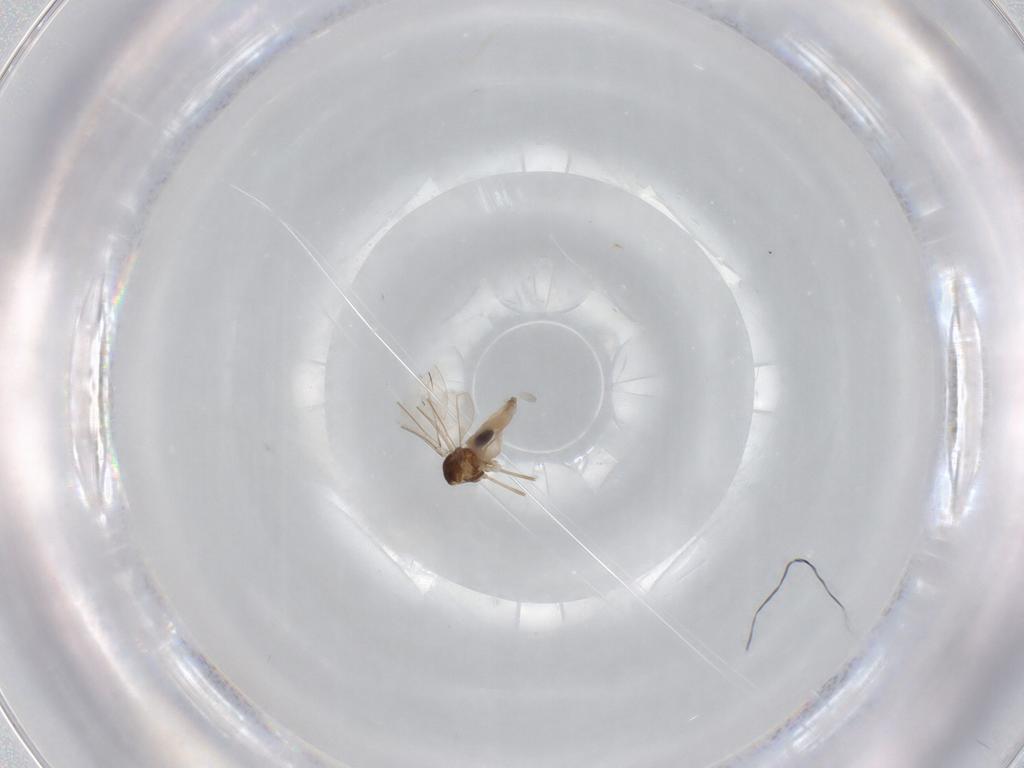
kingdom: Animalia
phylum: Arthropoda
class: Insecta
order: Diptera
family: Cecidomyiidae
